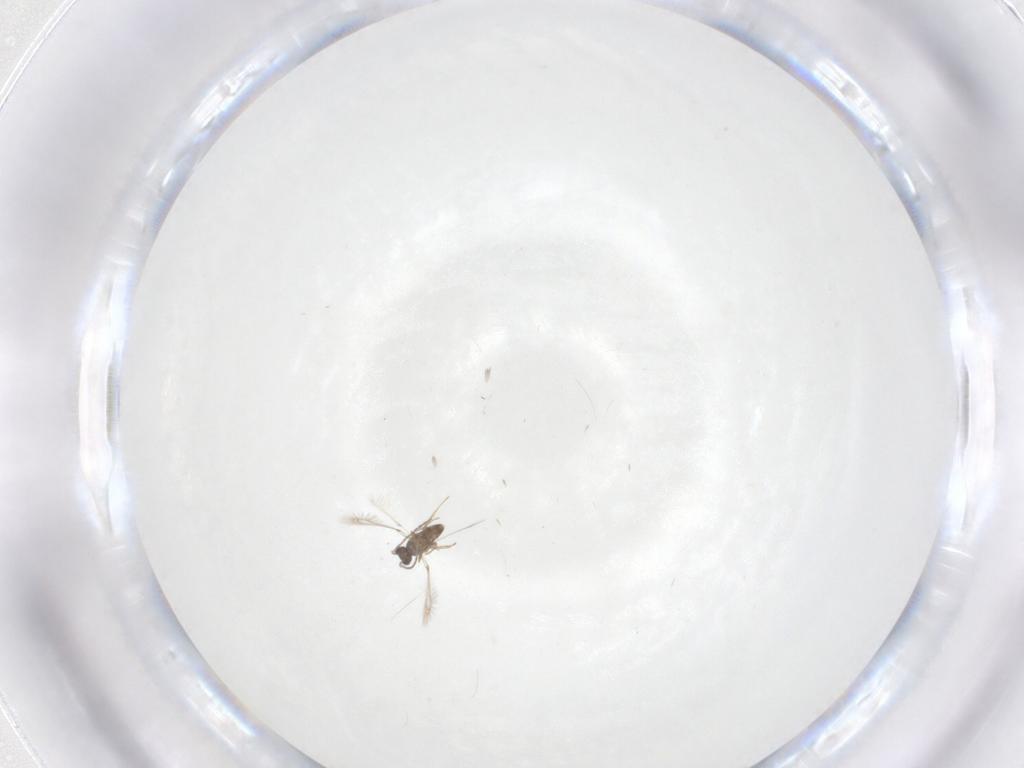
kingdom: Animalia
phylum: Arthropoda
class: Insecta
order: Hymenoptera
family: Mymaridae
